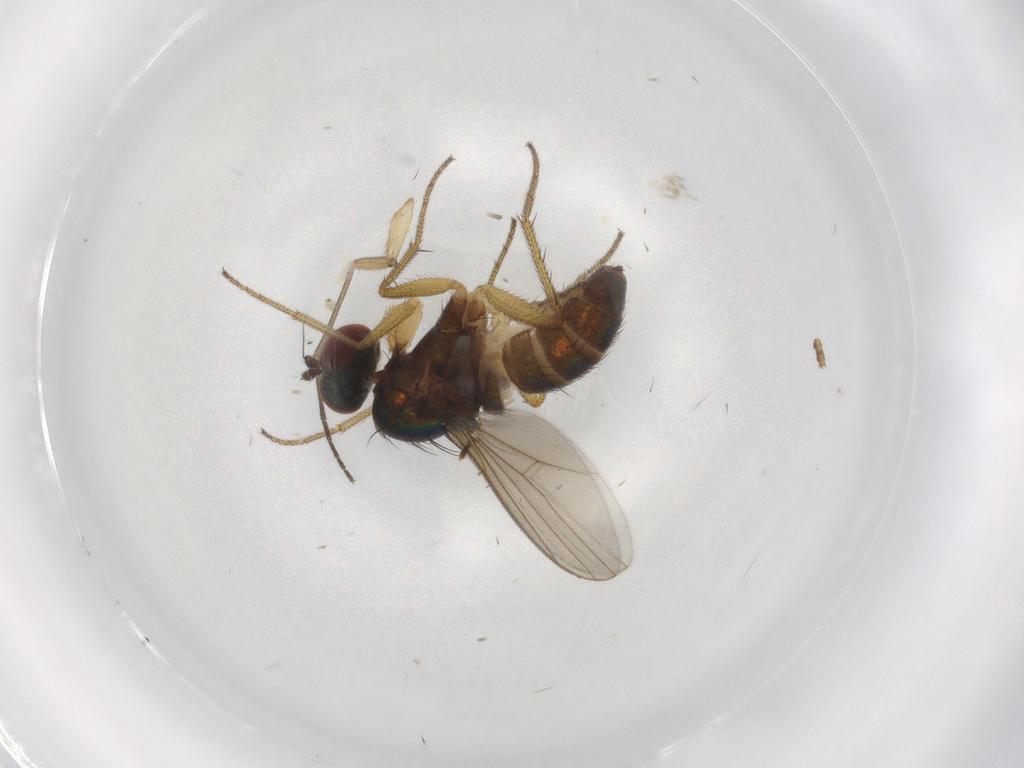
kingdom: Animalia
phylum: Arthropoda
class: Insecta
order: Diptera
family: Dolichopodidae
